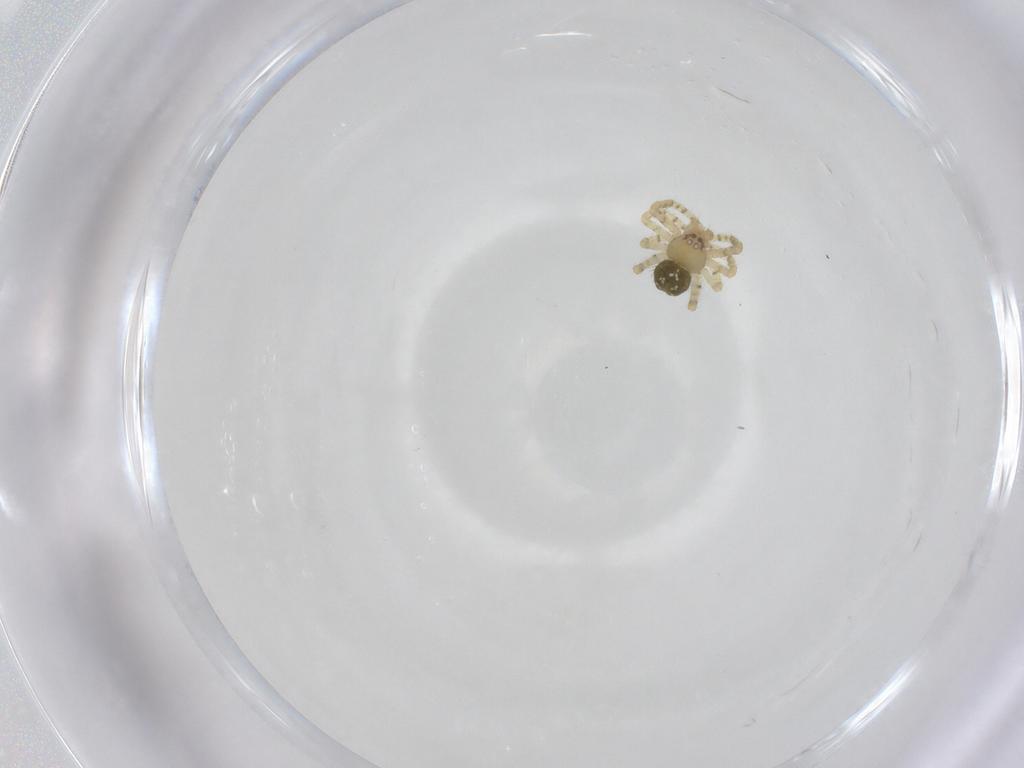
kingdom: Animalia
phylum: Arthropoda
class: Arachnida
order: Araneae
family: Theridiidae
